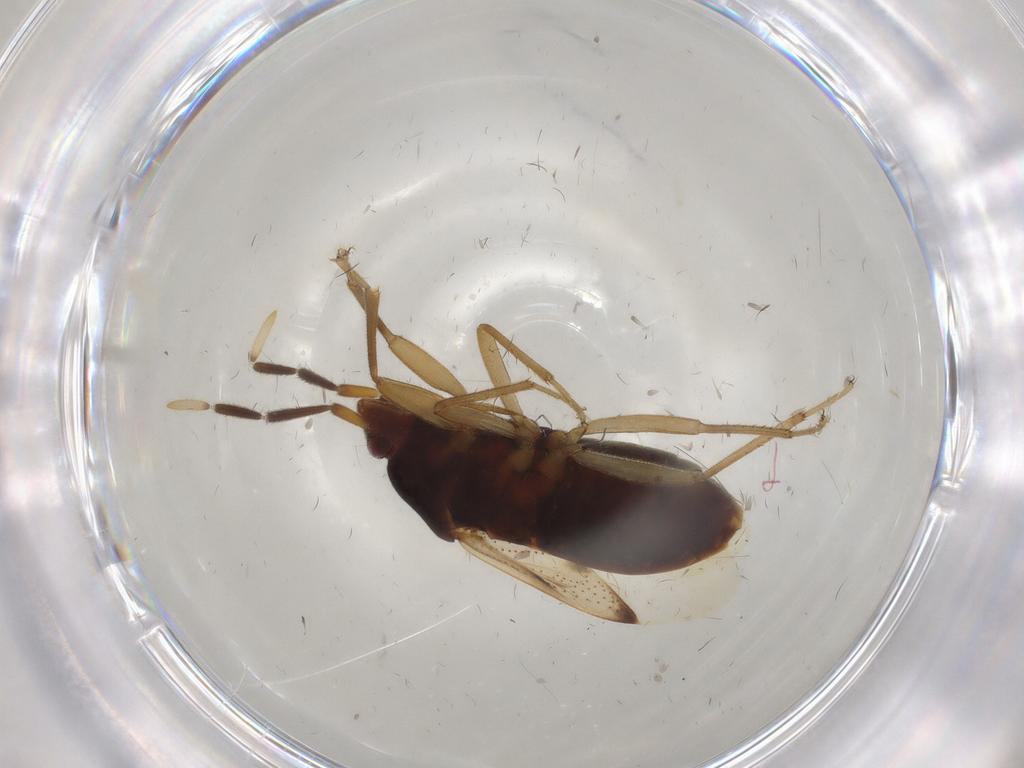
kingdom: Animalia
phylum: Arthropoda
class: Insecta
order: Hemiptera
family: Rhyparochromidae
